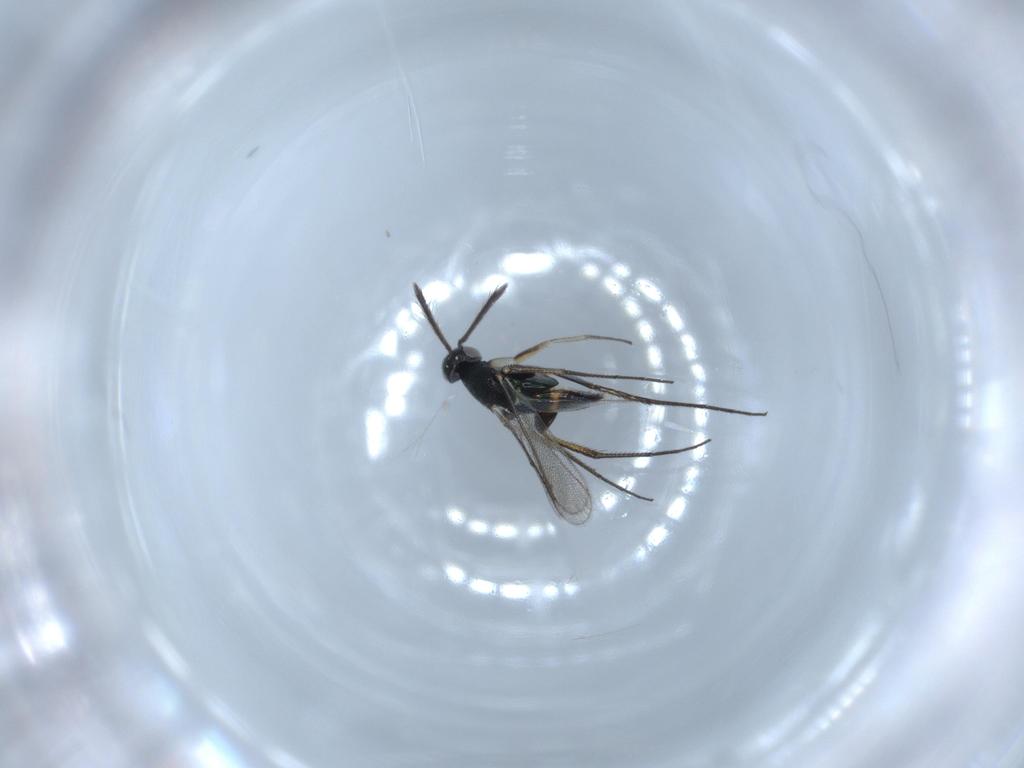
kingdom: Animalia
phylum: Arthropoda
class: Insecta
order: Hymenoptera
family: Eulophidae
